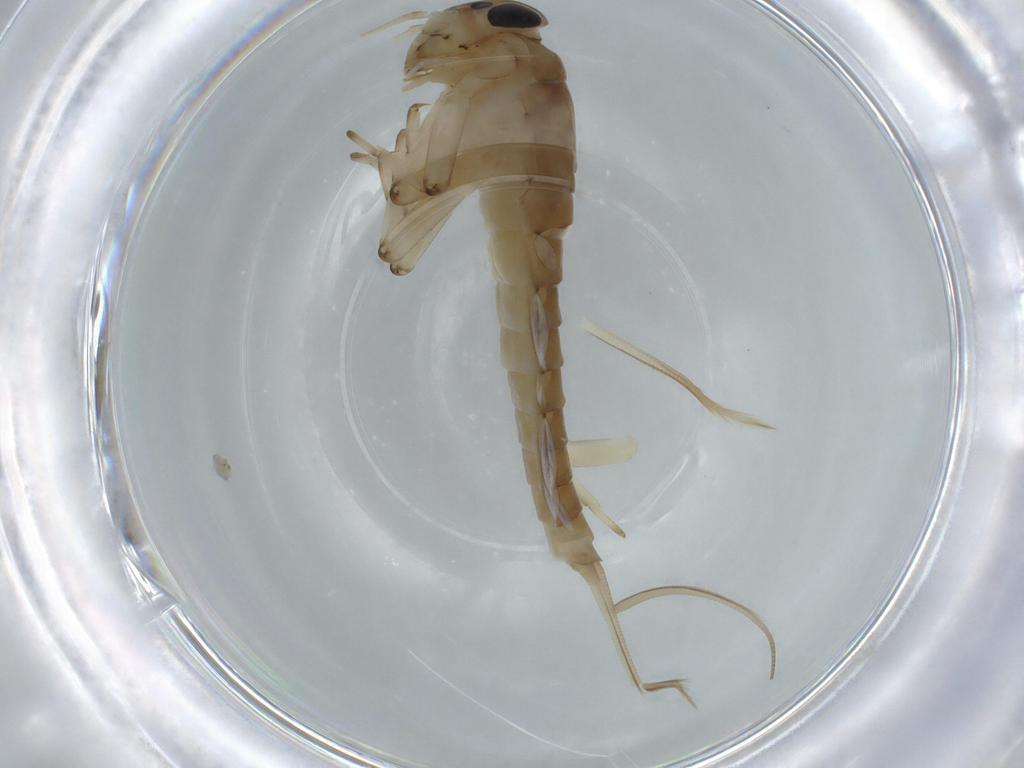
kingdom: Animalia
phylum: Arthropoda
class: Insecta
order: Ephemeroptera
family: Baetidae
